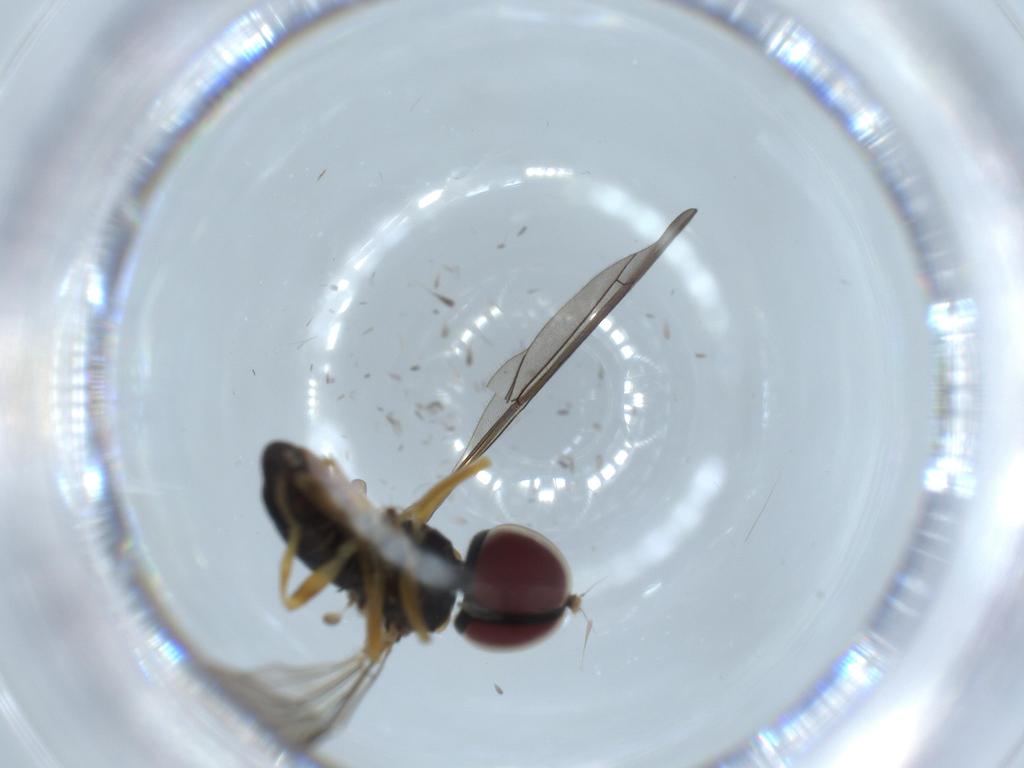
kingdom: Animalia
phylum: Arthropoda
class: Insecta
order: Diptera
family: Pipunculidae
